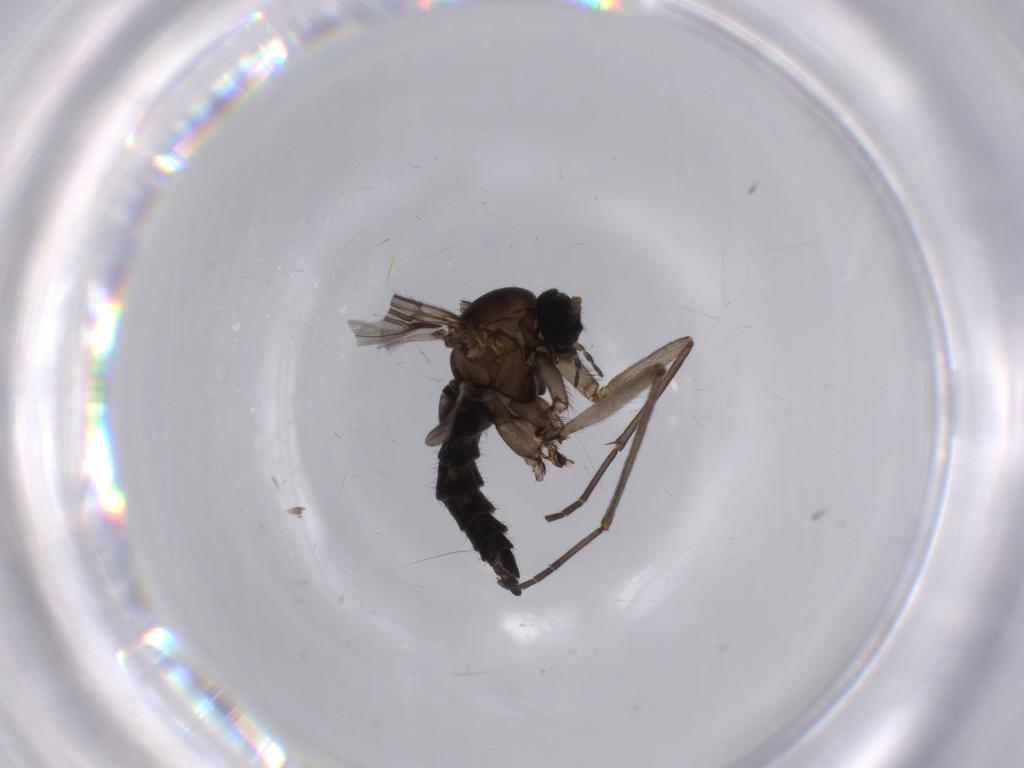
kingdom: Animalia
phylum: Arthropoda
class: Insecta
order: Diptera
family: Sciaridae
